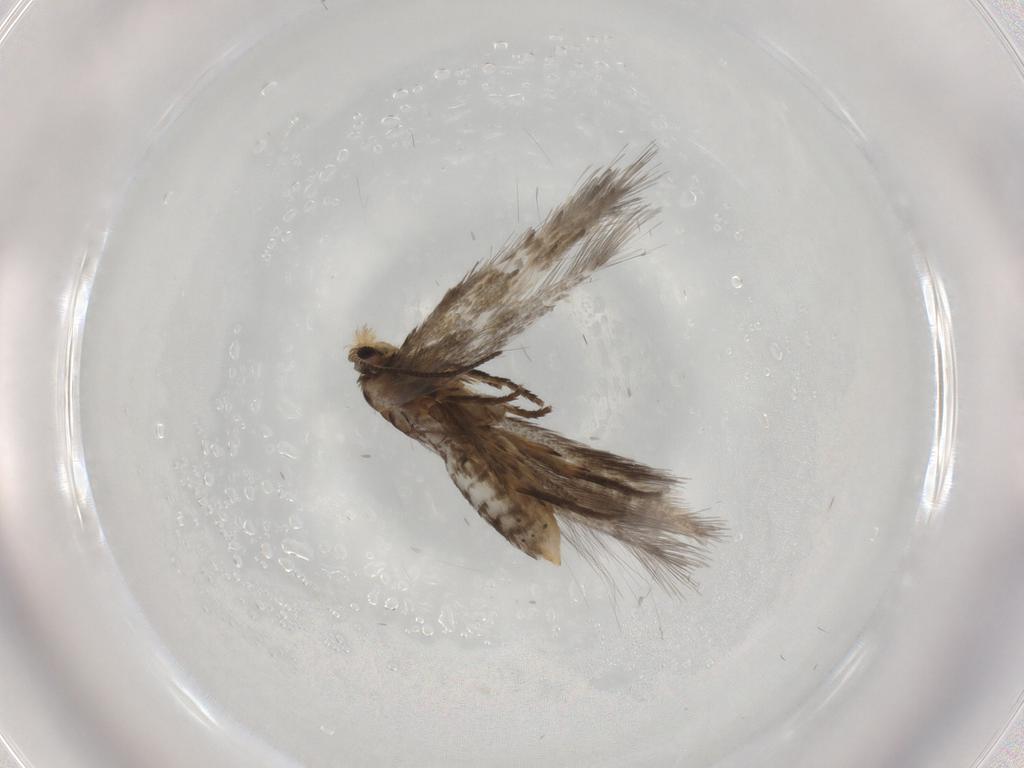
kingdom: Animalia
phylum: Arthropoda
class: Insecta
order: Lepidoptera
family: Nepticulidae
